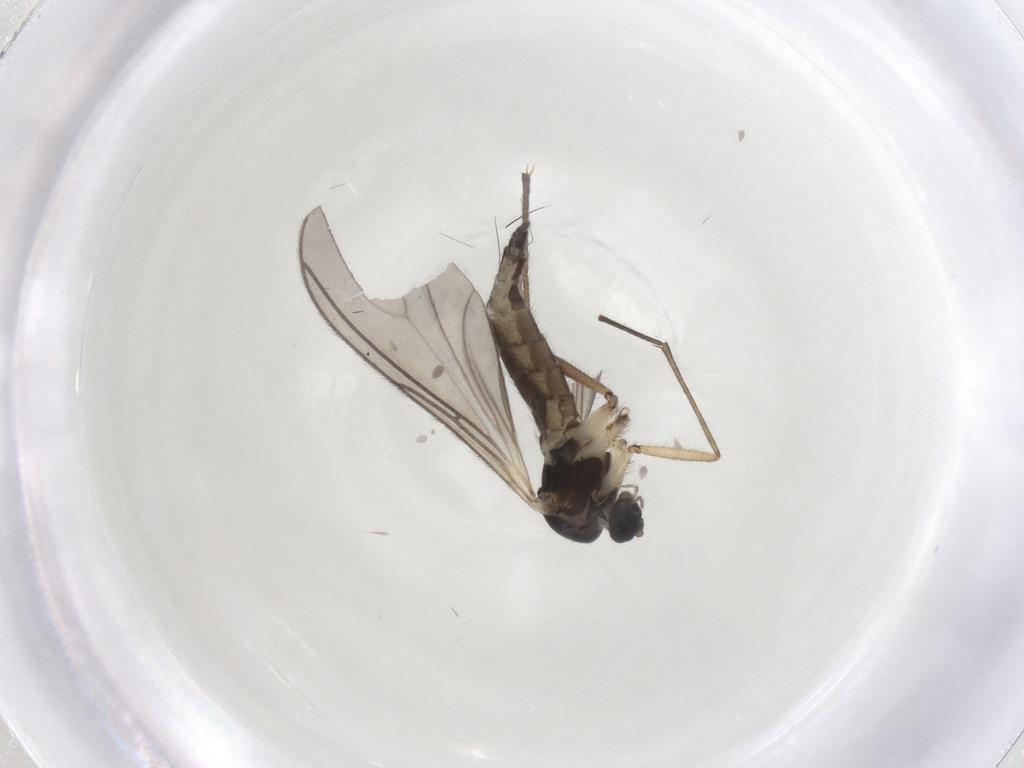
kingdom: Animalia
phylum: Arthropoda
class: Insecta
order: Diptera
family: Sciaridae
